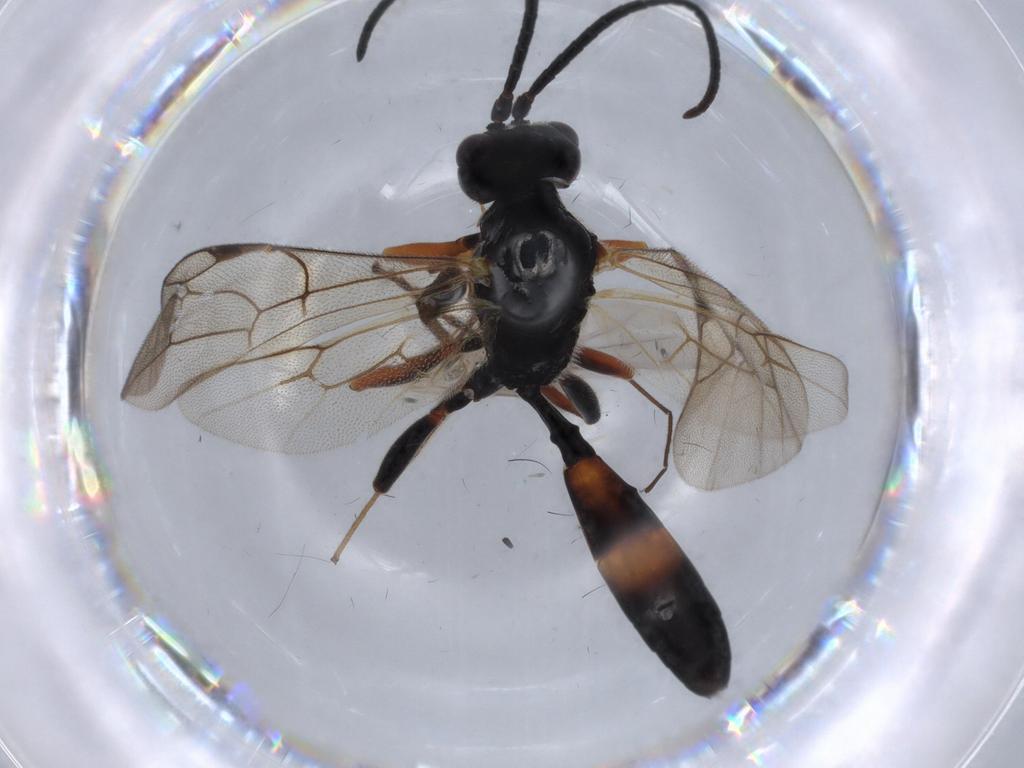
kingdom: Animalia
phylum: Arthropoda
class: Insecta
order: Hymenoptera
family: Ichneumonidae
